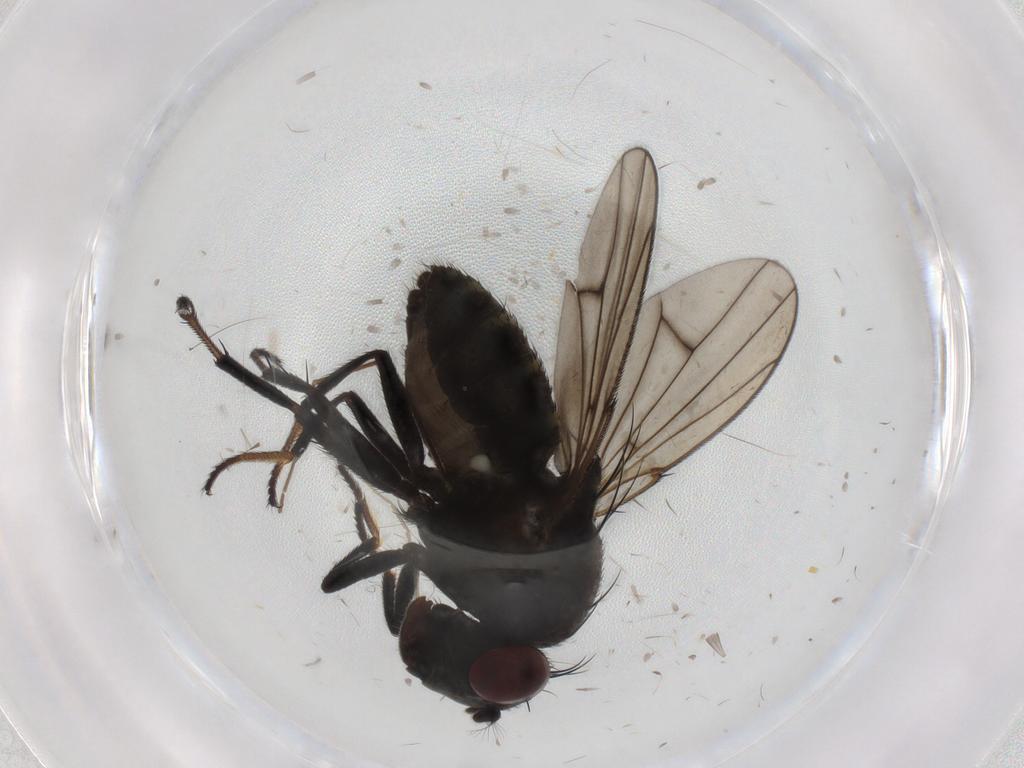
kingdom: Animalia
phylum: Arthropoda
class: Insecta
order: Diptera
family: Ephydridae
